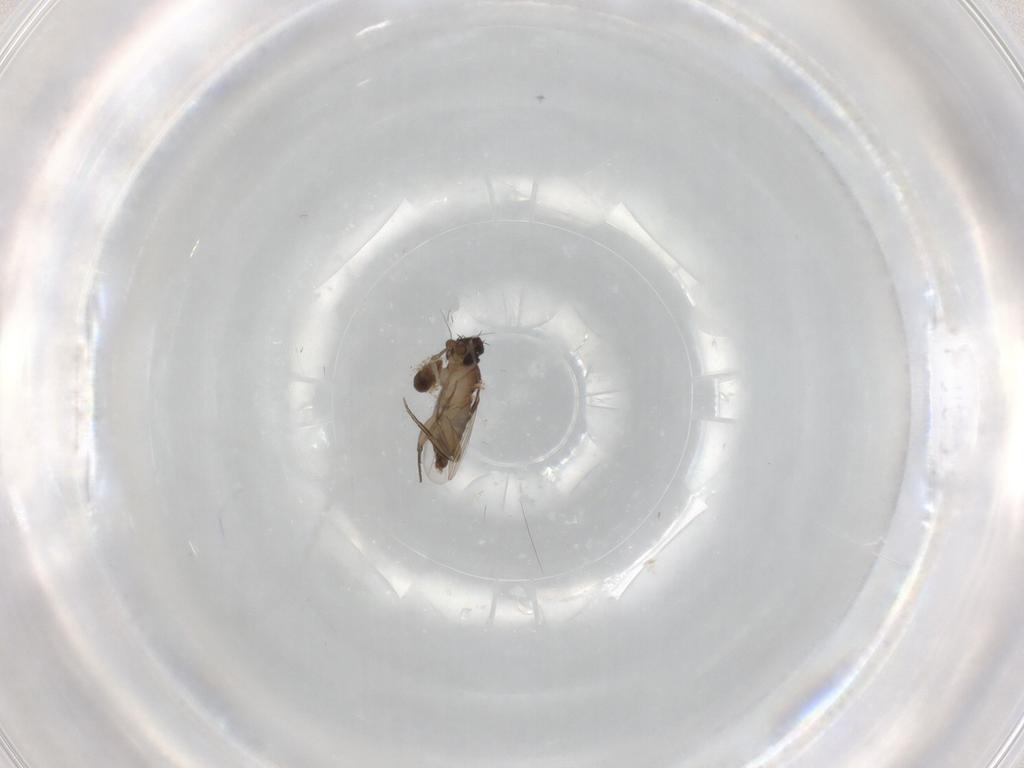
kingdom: Animalia
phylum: Arthropoda
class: Insecta
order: Diptera
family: Cecidomyiidae
